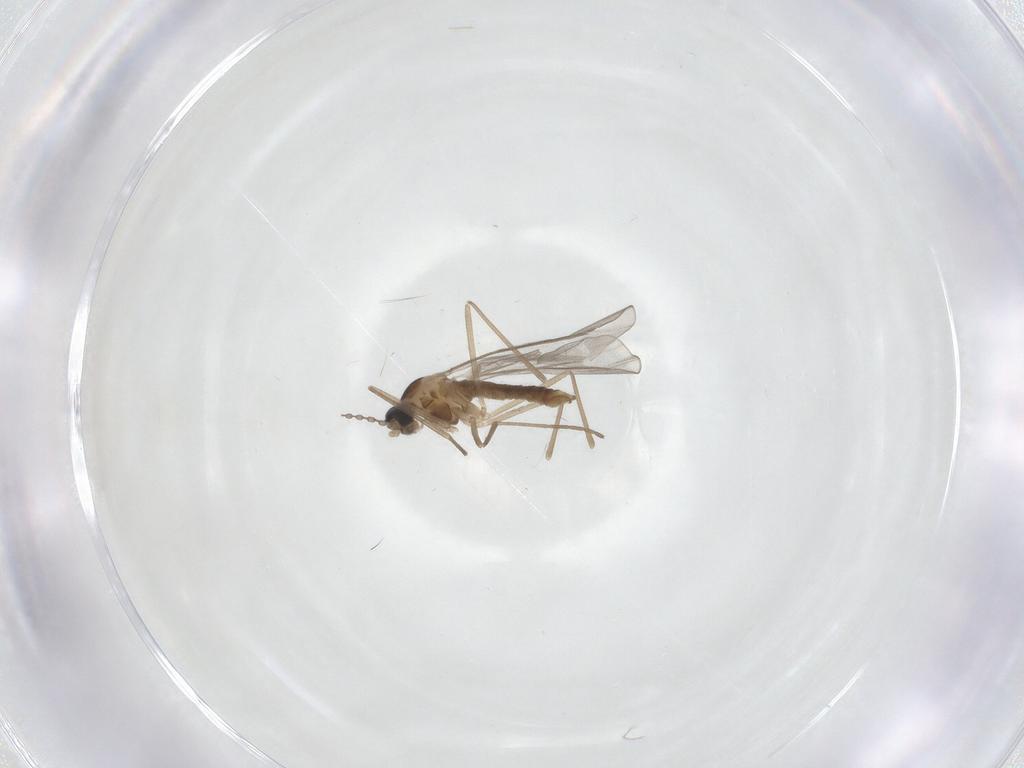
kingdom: Animalia
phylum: Arthropoda
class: Insecta
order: Diptera
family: Cecidomyiidae
